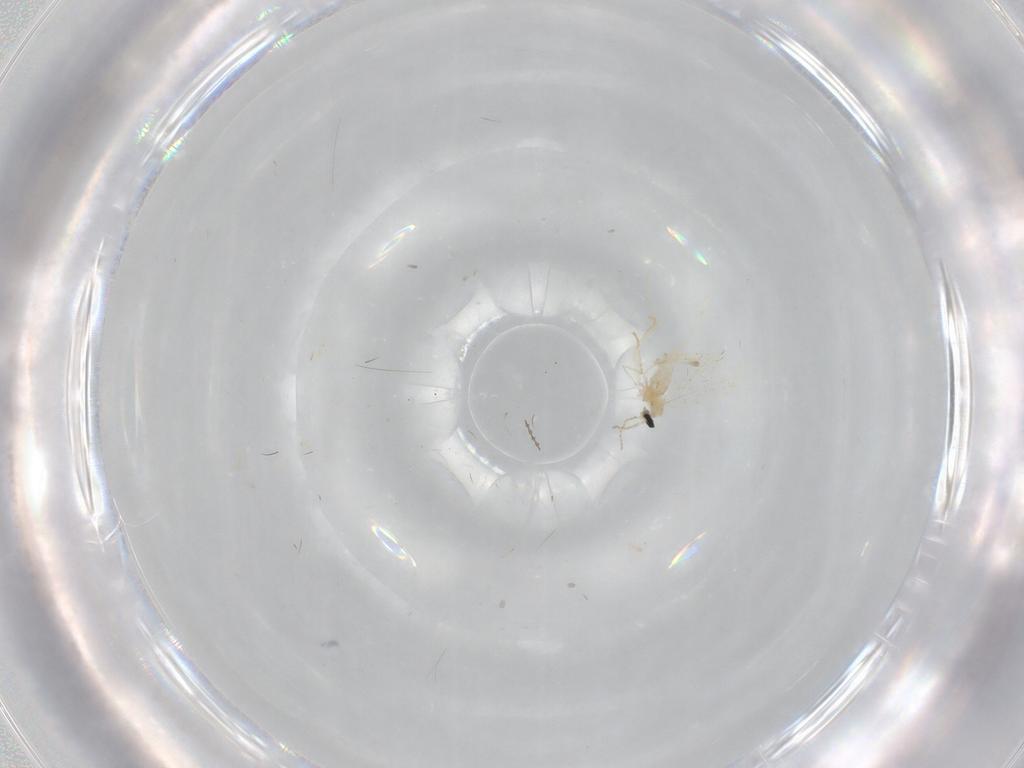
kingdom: Animalia
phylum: Arthropoda
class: Insecta
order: Diptera
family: Cecidomyiidae
